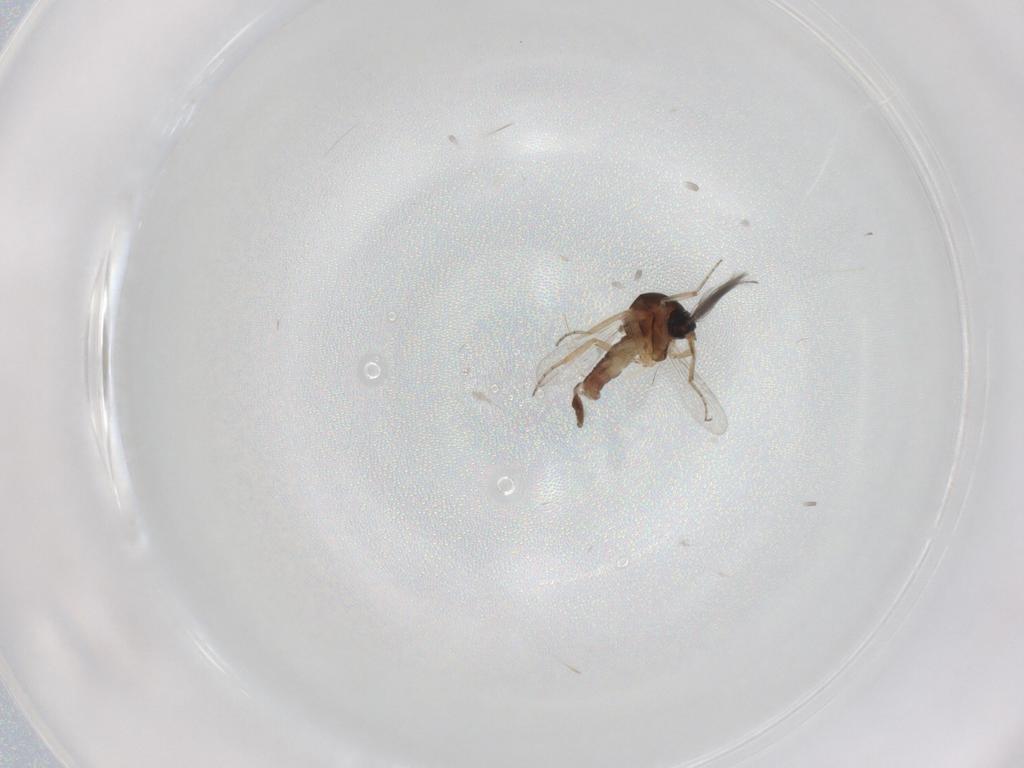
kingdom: Animalia
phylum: Arthropoda
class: Insecta
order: Diptera
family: Ceratopogonidae
